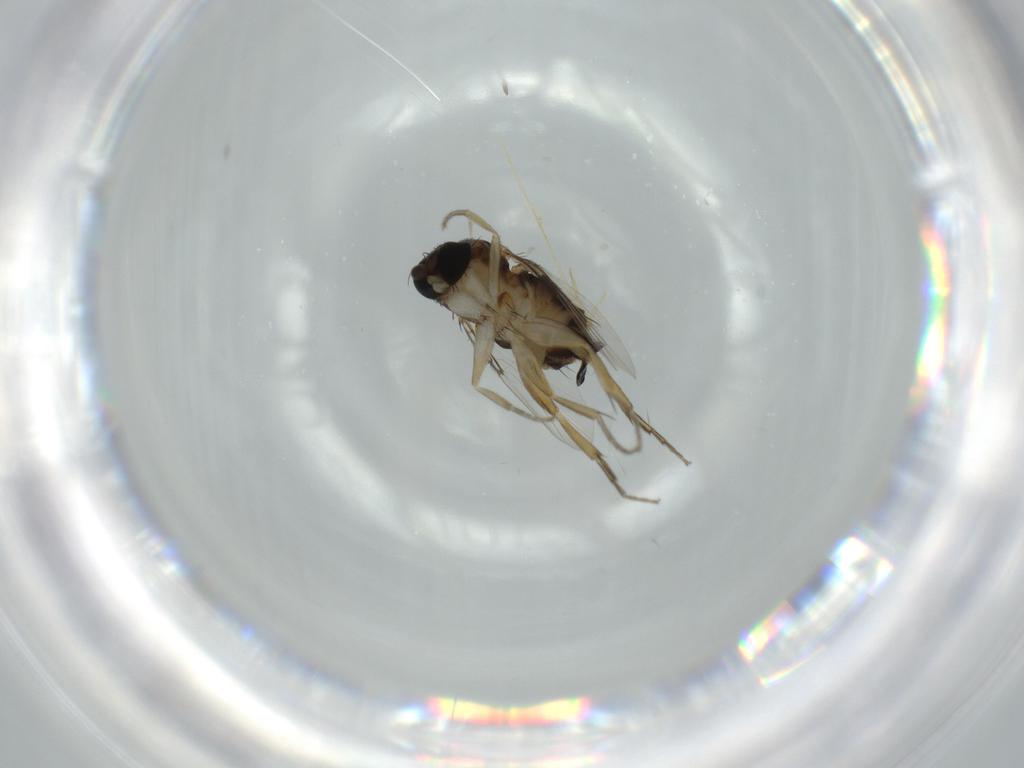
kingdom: Animalia
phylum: Arthropoda
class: Insecta
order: Diptera
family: Phoridae
